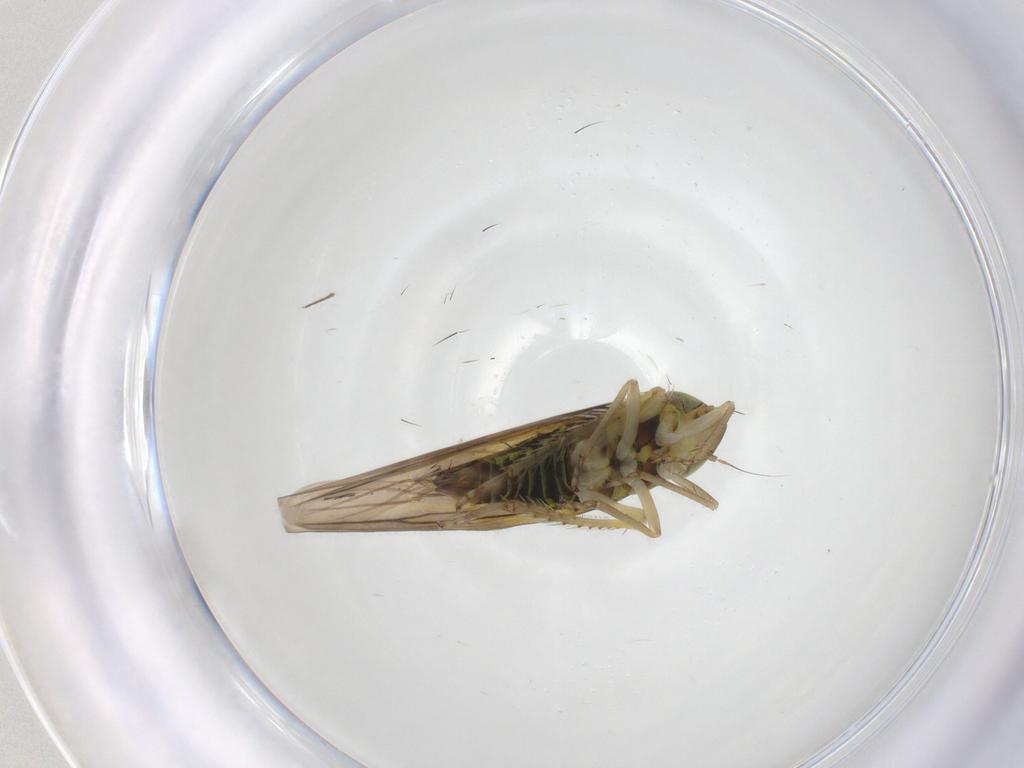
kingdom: Animalia
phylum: Arthropoda
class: Insecta
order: Hemiptera
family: Cicadellidae
